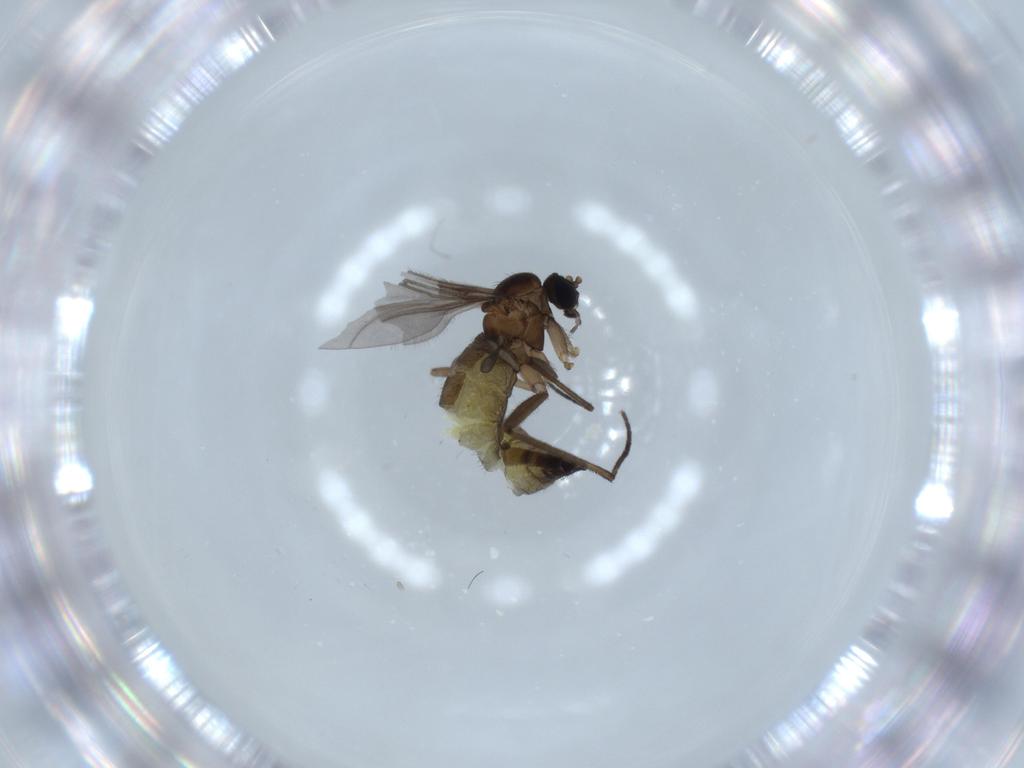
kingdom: Animalia
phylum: Arthropoda
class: Insecta
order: Diptera
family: Sciaridae
